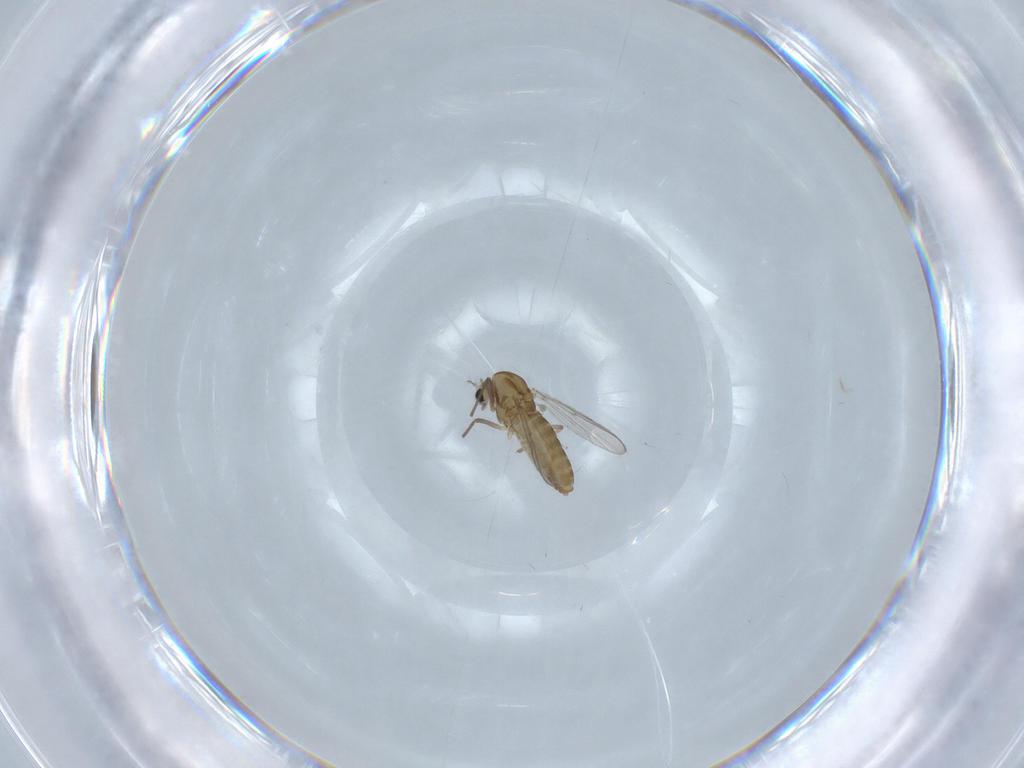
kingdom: Animalia
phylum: Arthropoda
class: Insecta
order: Diptera
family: Chironomidae
